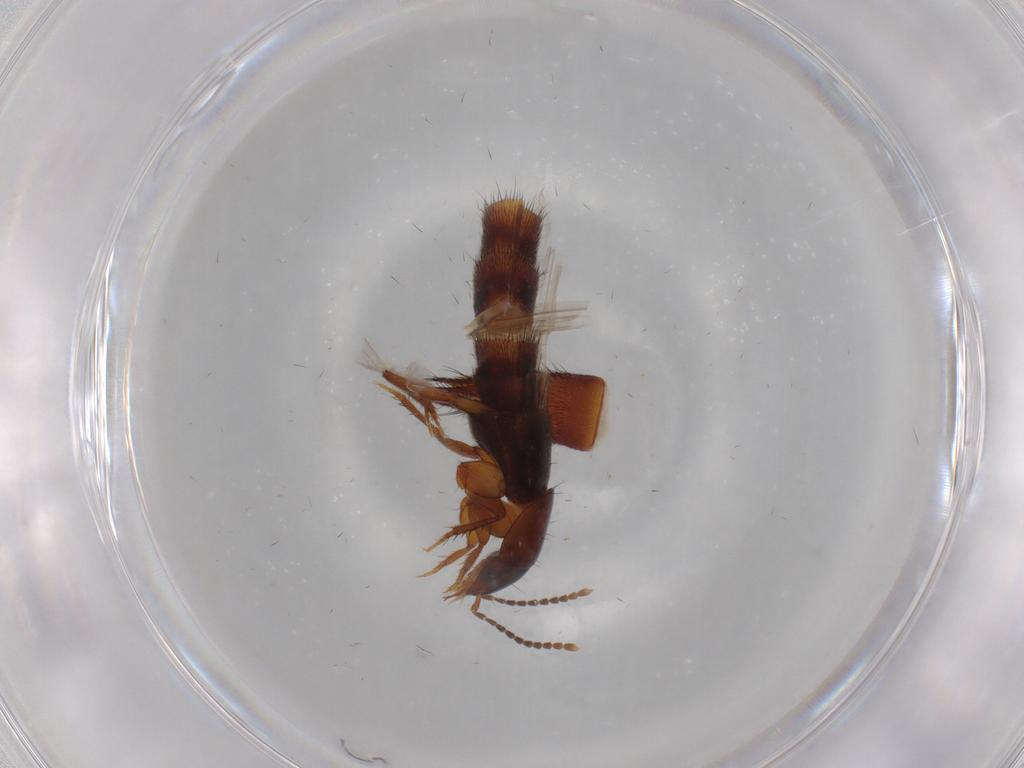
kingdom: Animalia
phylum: Arthropoda
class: Insecta
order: Coleoptera
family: Staphylinidae
